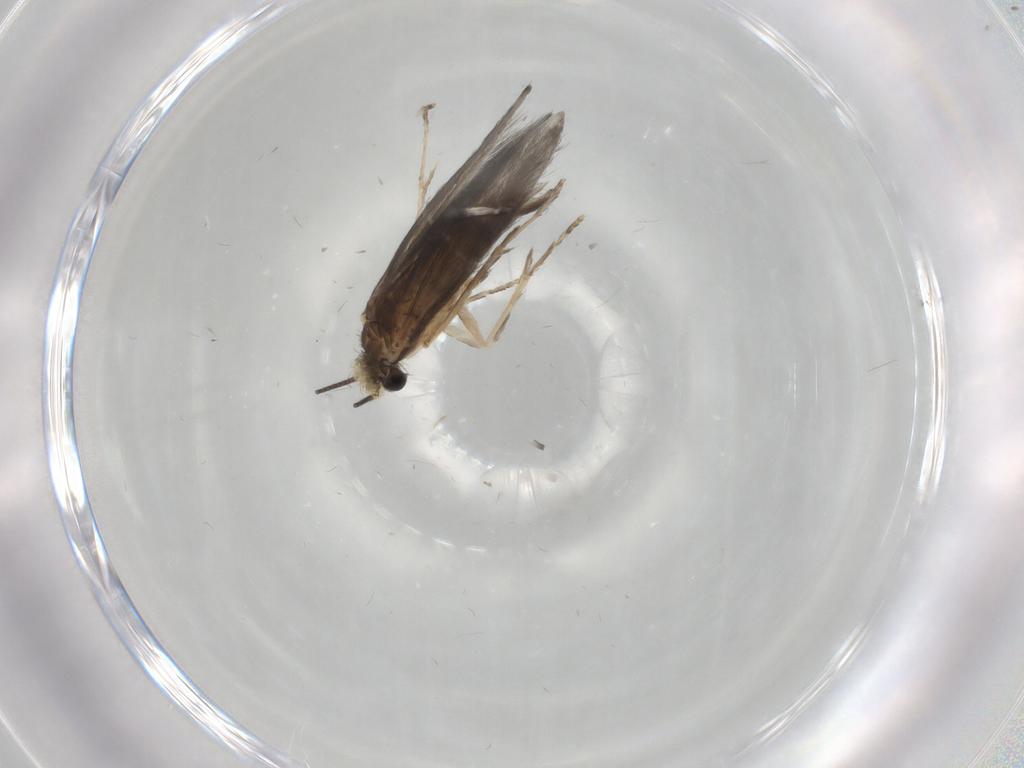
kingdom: Animalia
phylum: Arthropoda
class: Insecta
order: Trichoptera
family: Hydroptilidae
